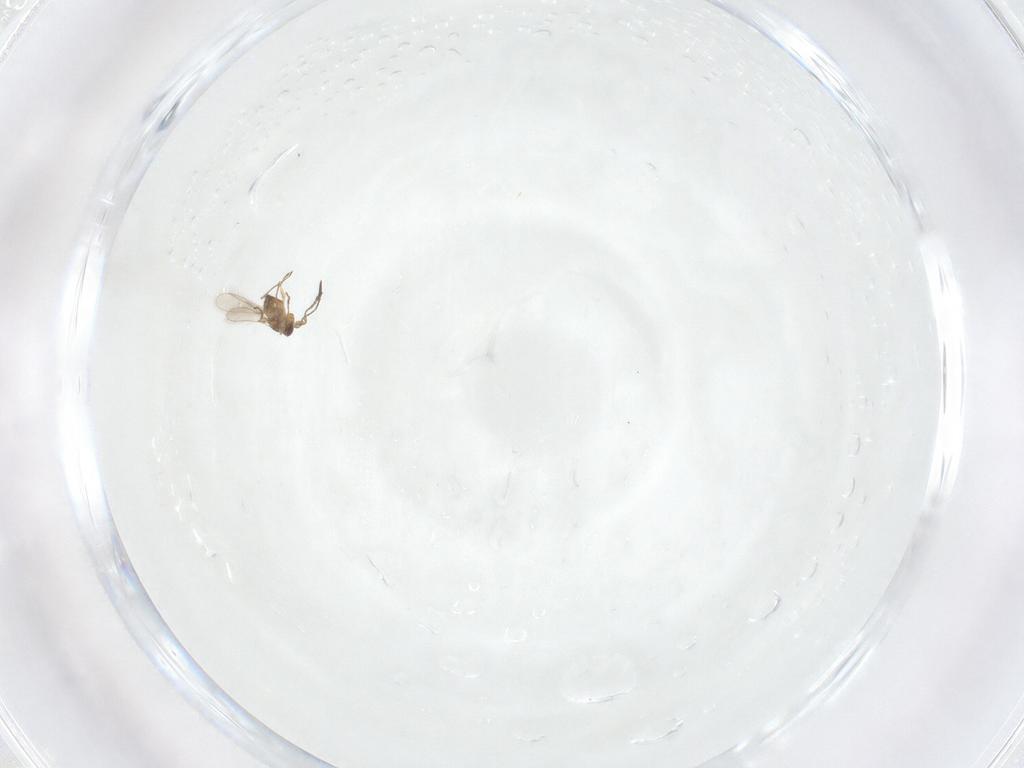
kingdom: Animalia
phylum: Arthropoda
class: Insecta
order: Hymenoptera
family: Mymaridae
